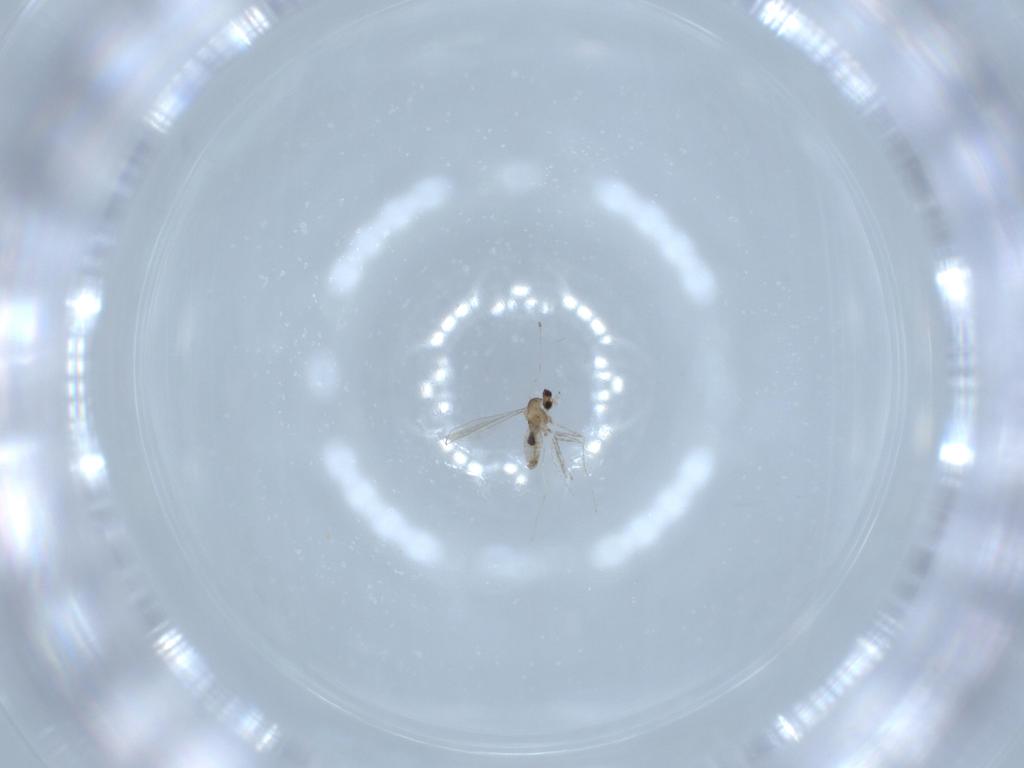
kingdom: Animalia
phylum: Arthropoda
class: Insecta
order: Diptera
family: Cecidomyiidae
